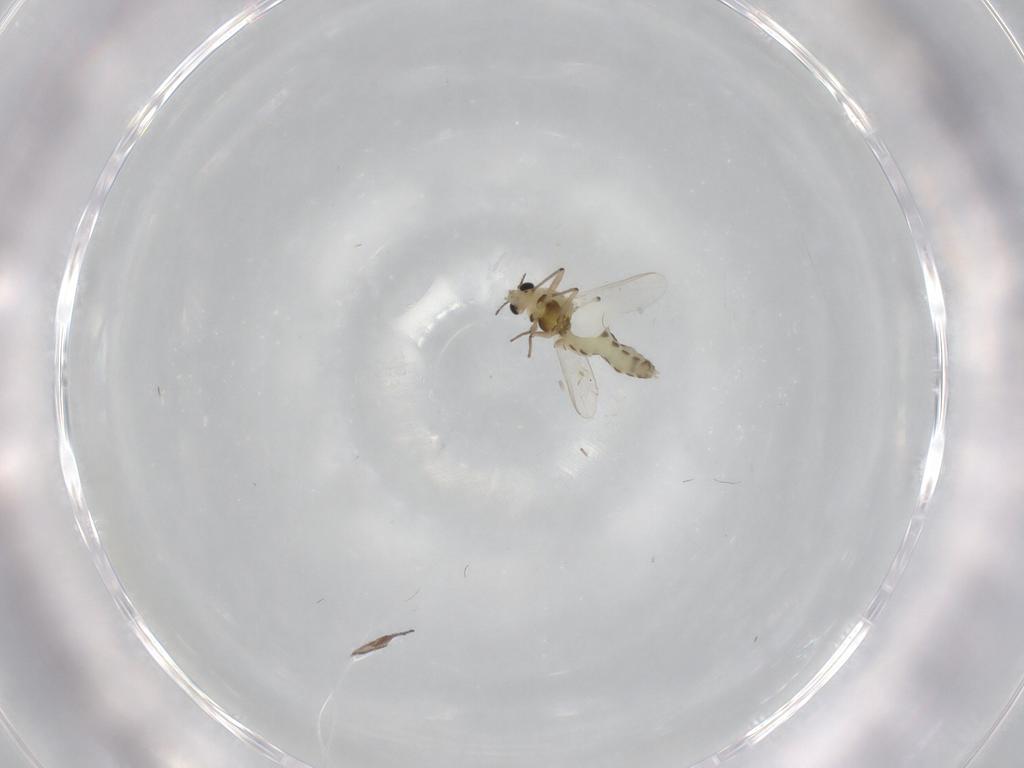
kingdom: Animalia
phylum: Arthropoda
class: Insecta
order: Diptera
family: Chironomidae
